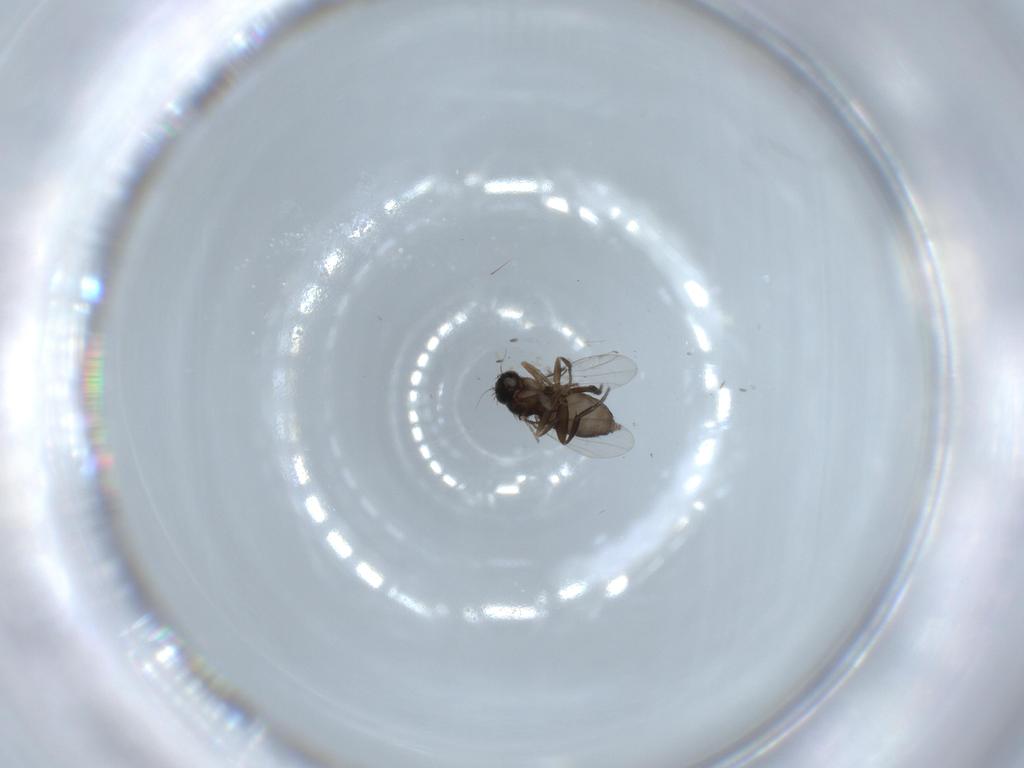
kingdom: Animalia
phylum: Arthropoda
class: Insecta
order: Diptera
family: Phoridae
